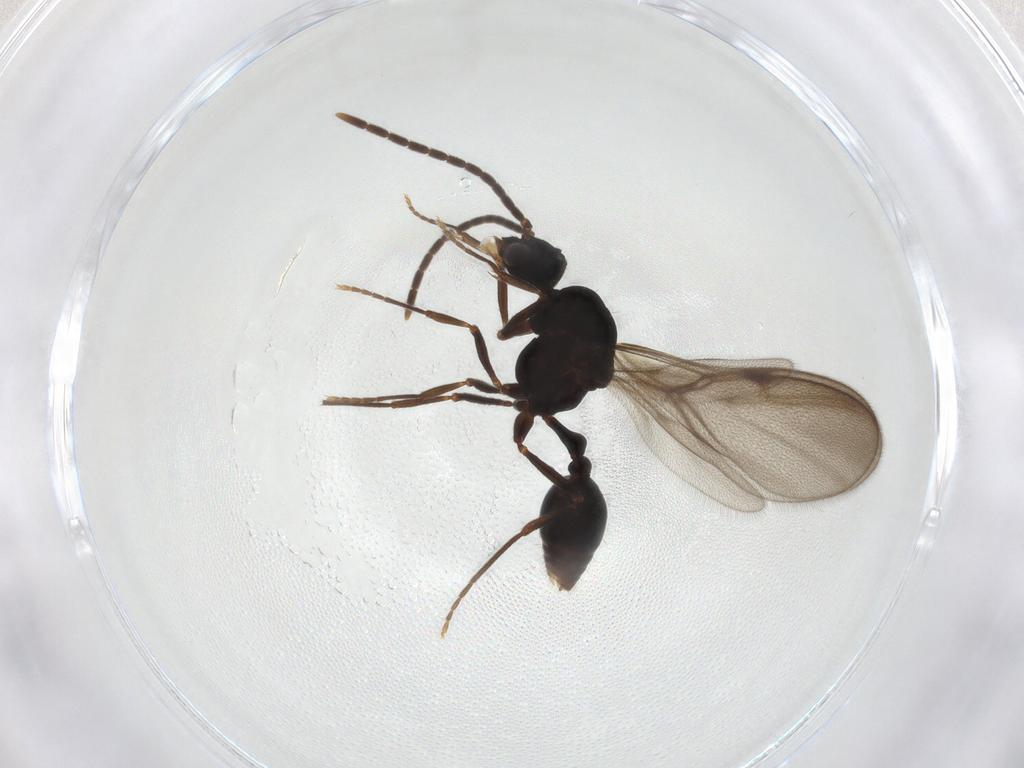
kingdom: Animalia
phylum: Arthropoda
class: Insecta
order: Hymenoptera
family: Formicidae
